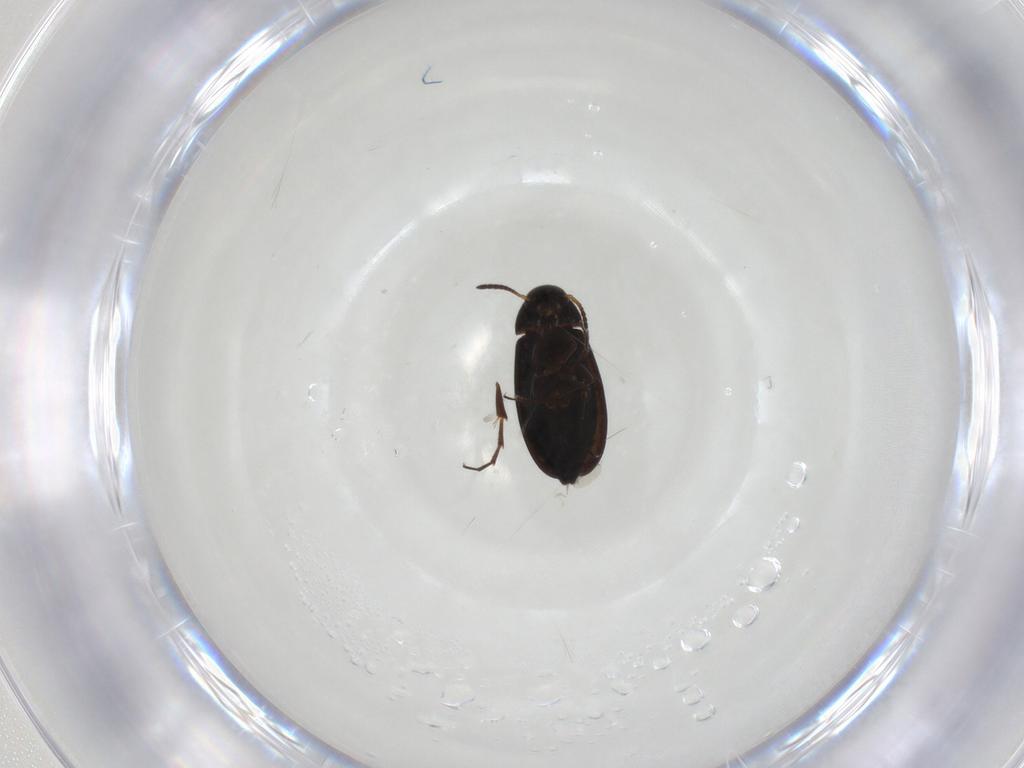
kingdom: Animalia
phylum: Arthropoda
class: Insecta
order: Coleoptera
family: Scraptiidae
